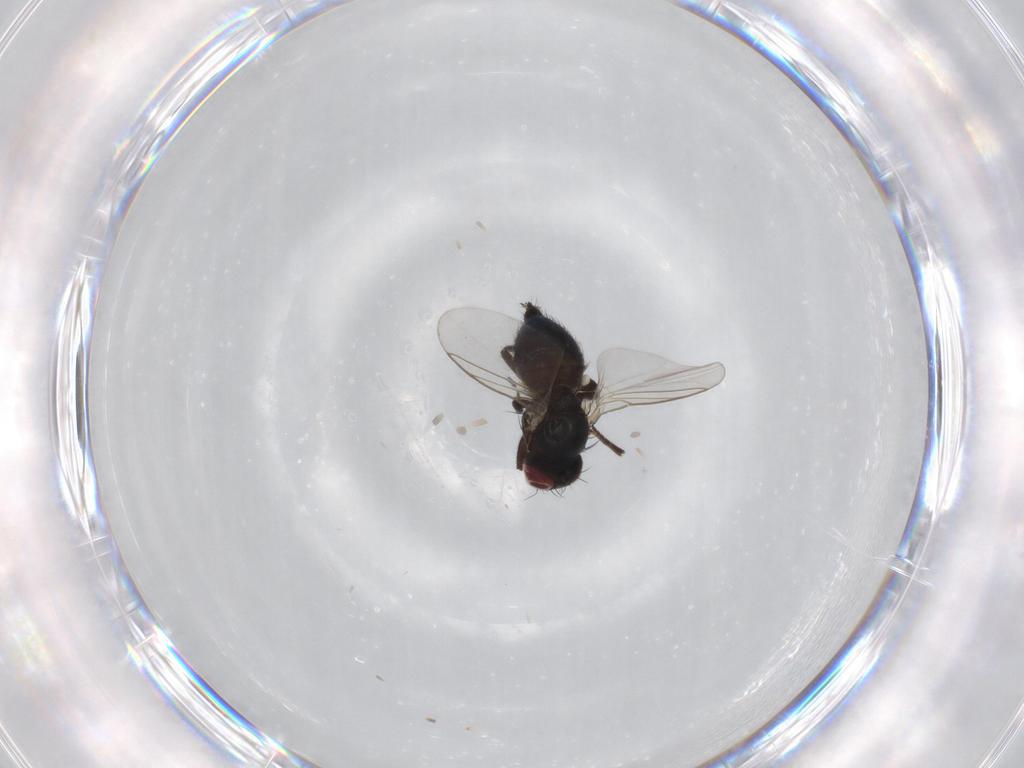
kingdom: Animalia
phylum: Arthropoda
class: Insecta
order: Diptera
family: Agromyzidae
